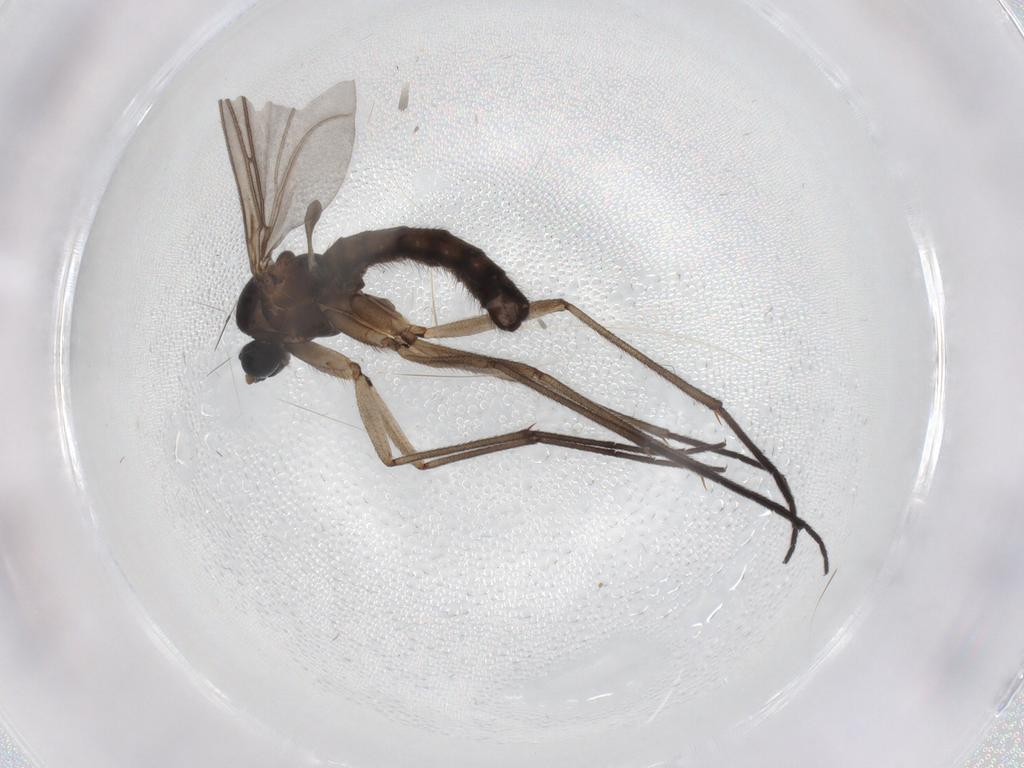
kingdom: Animalia
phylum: Arthropoda
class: Insecta
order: Diptera
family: Sciaridae
